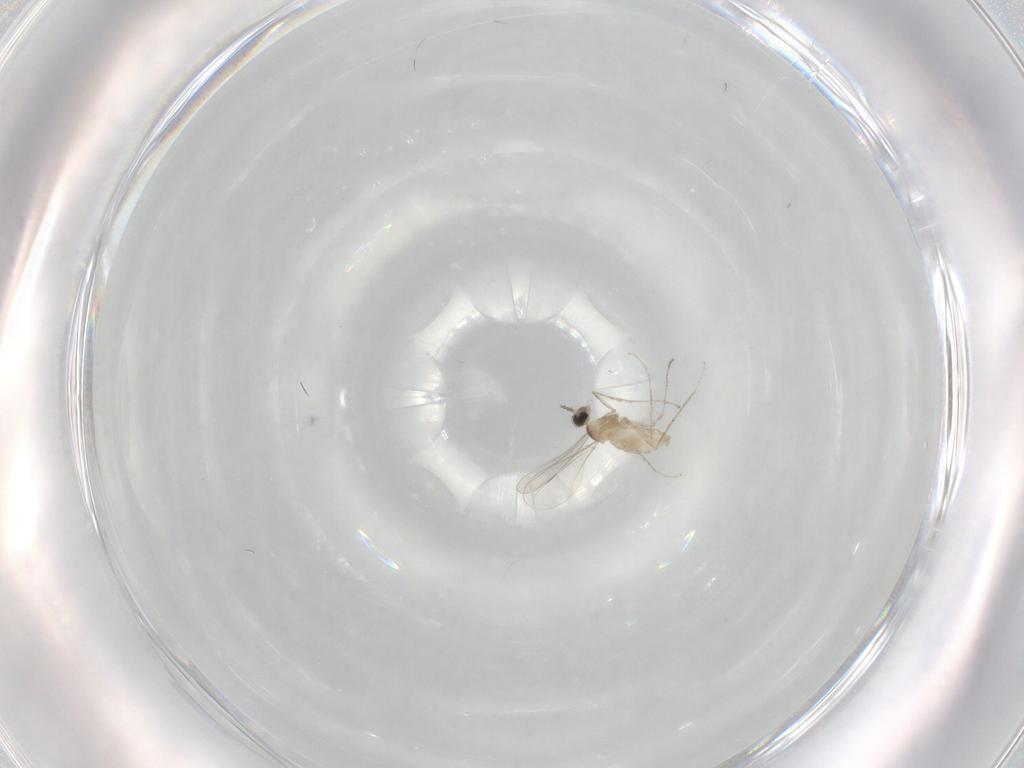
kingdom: Animalia
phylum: Arthropoda
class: Insecta
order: Diptera
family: Cecidomyiidae
